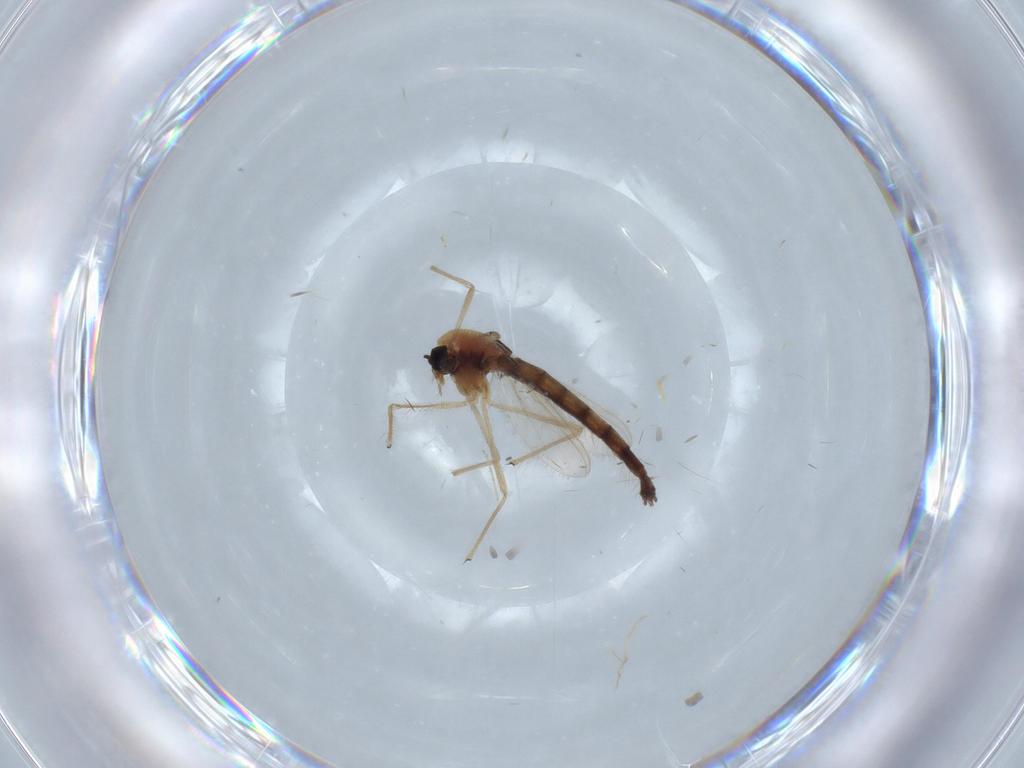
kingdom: Animalia
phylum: Arthropoda
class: Insecta
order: Diptera
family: Chironomidae
